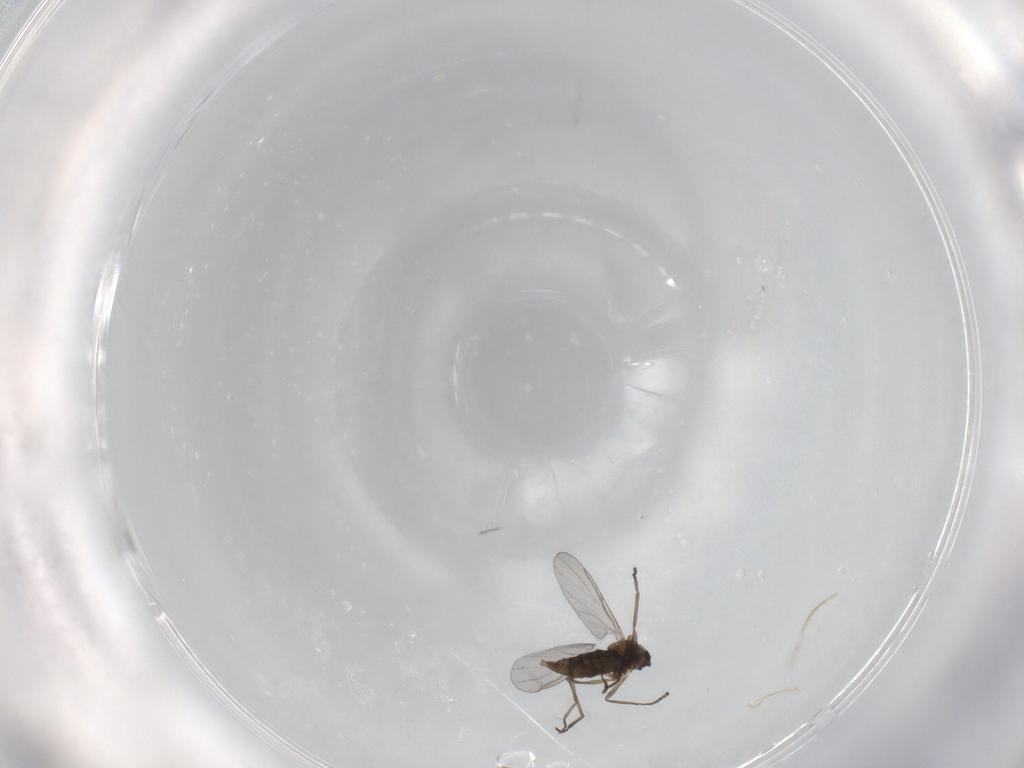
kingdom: Animalia
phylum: Arthropoda
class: Insecta
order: Diptera
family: Cecidomyiidae
